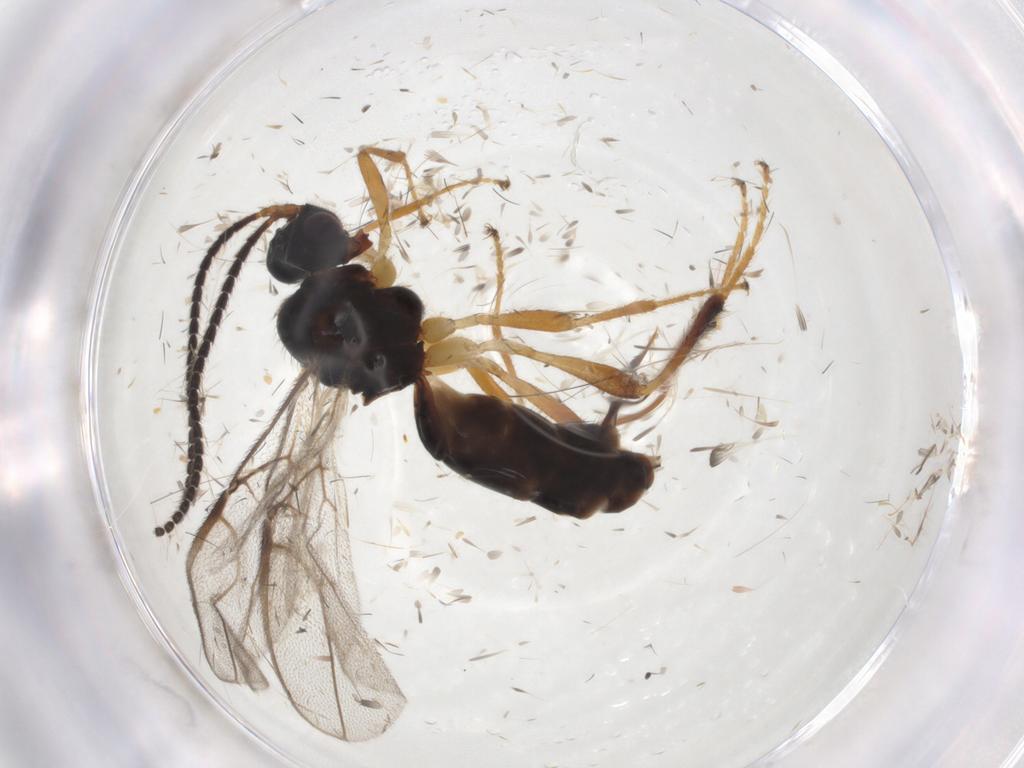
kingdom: Animalia
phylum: Arthropoda
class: Insecta
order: Hymenoptera
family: Braconidae
